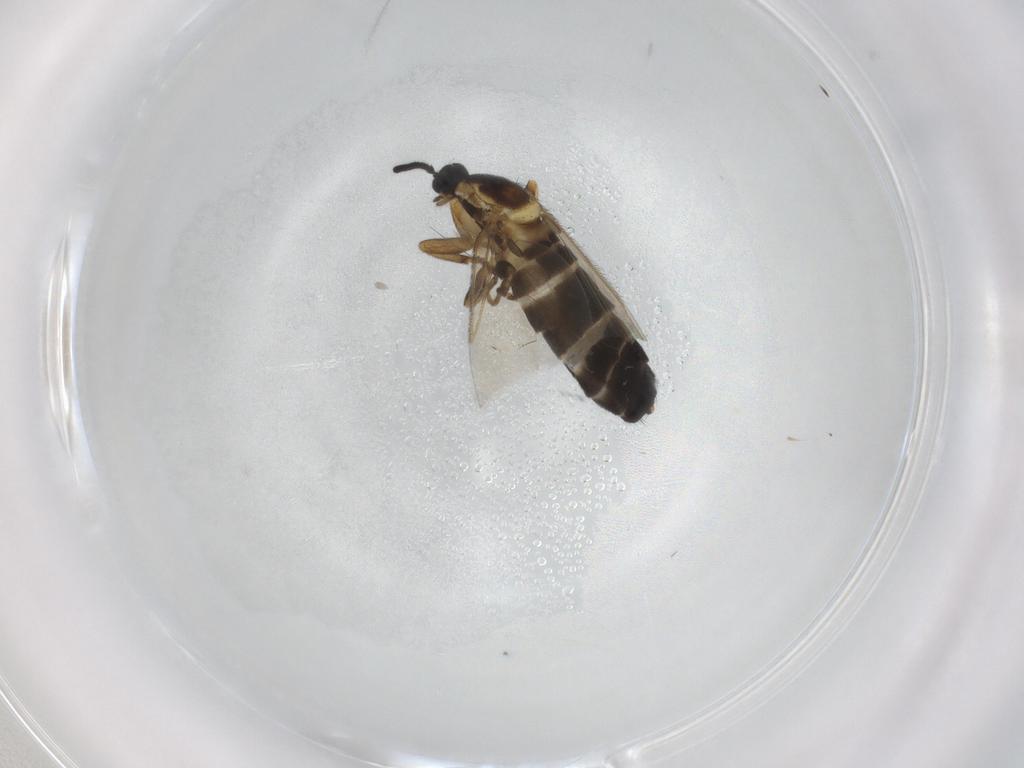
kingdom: Animalia
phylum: Arthropoda
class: Insecta
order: Diptera
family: Scatopsidae
